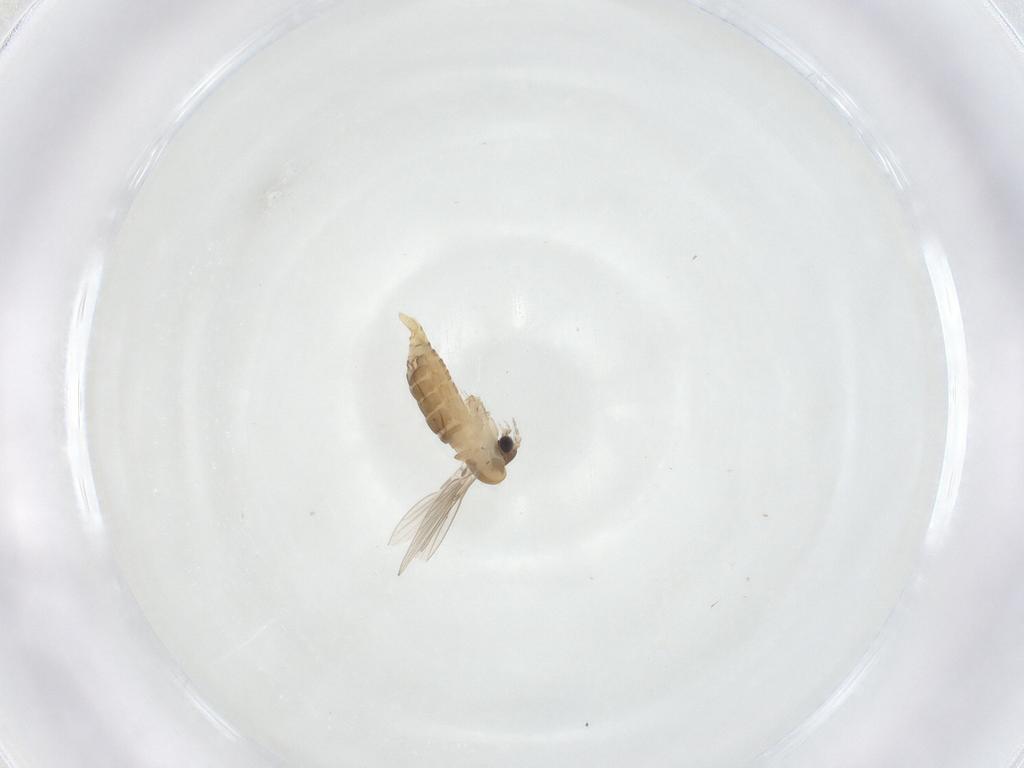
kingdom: Animalia
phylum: Arthropoda
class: Insecta
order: Diptera
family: Psychodidae
